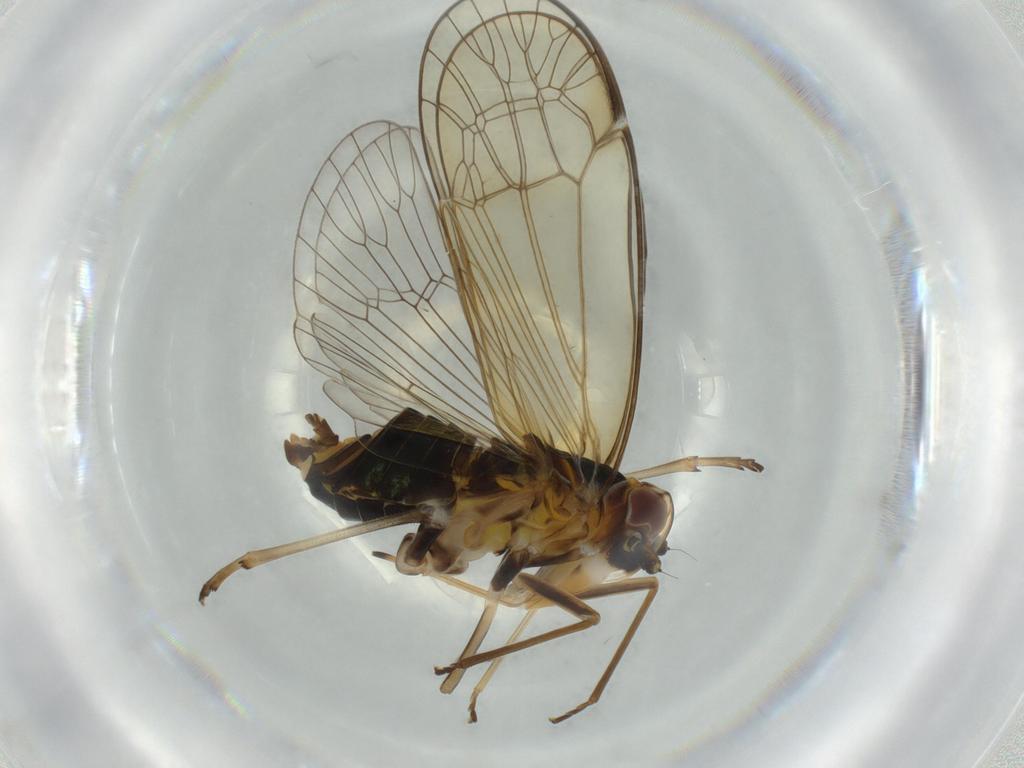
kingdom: Animalia
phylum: Arthropoda
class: Insecta
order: Hemiptera
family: Kinnaridae
